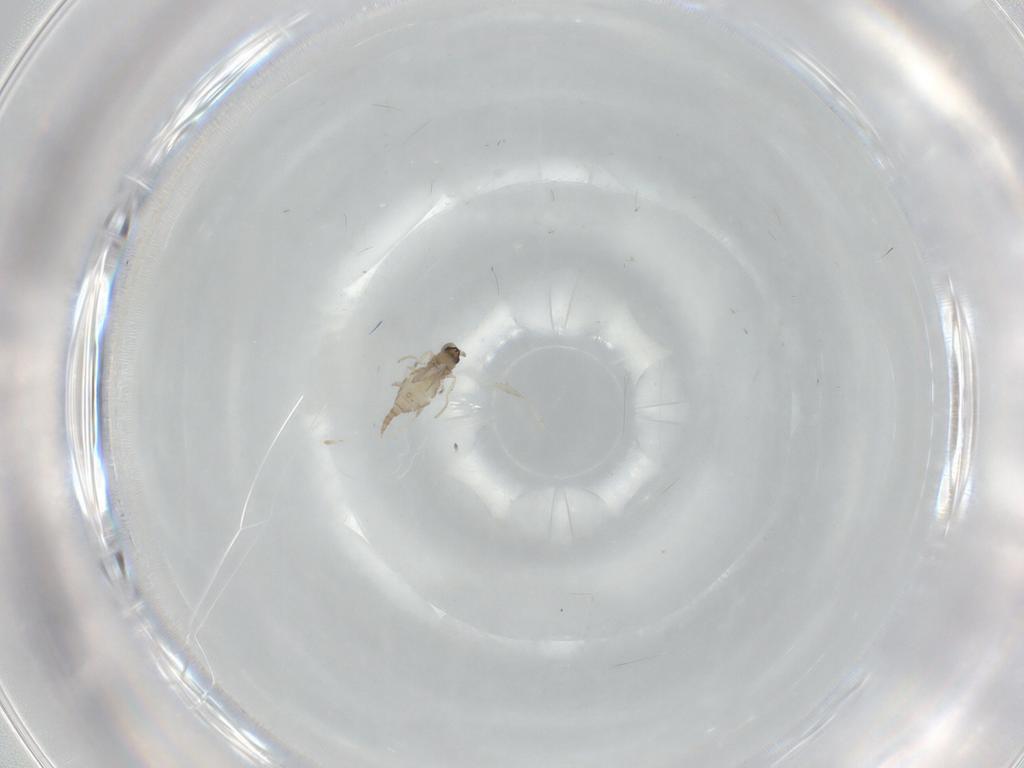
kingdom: Animalia
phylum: Arthropoda
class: Insecta
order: Diptera
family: Cecidomyiidae
